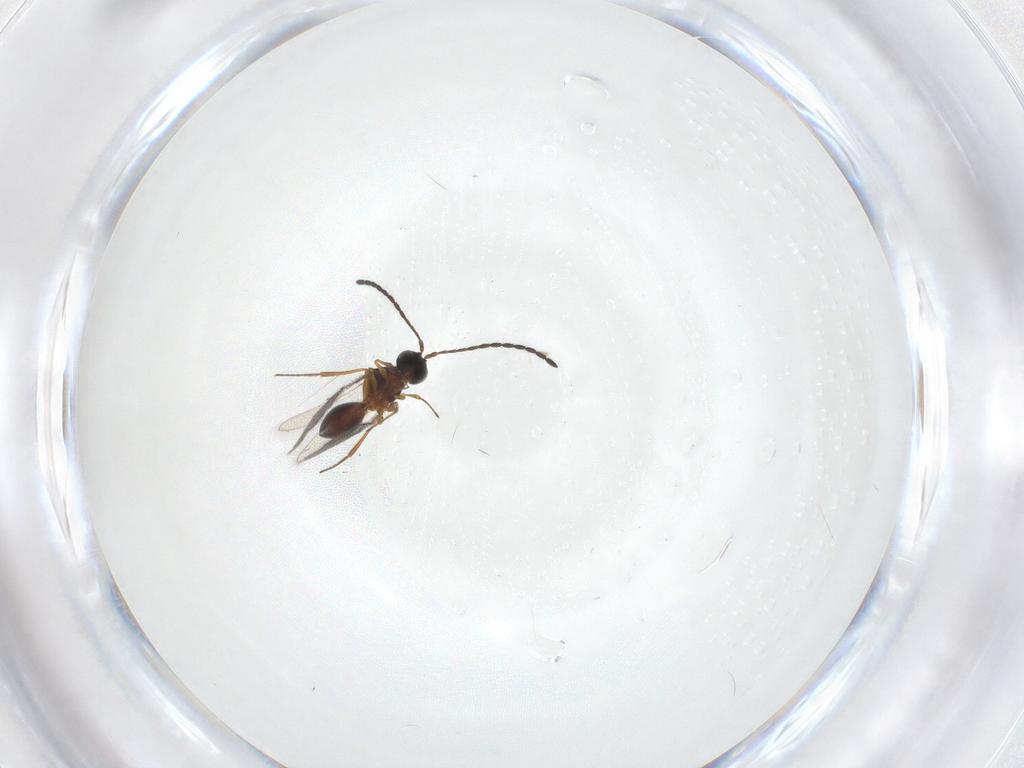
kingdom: Animalia
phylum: Arthropoda
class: Insecta
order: Hymenoptera
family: Figitidae
